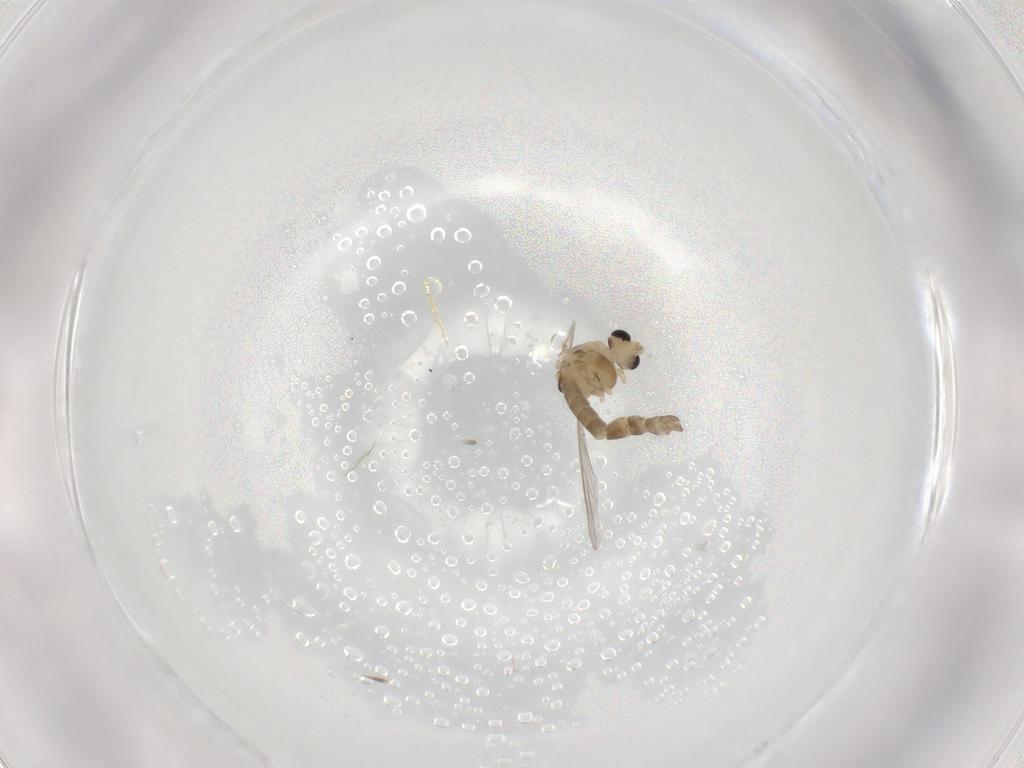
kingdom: Animalia
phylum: Arthropoda
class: Insecta
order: Diptera
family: Chironomidae
